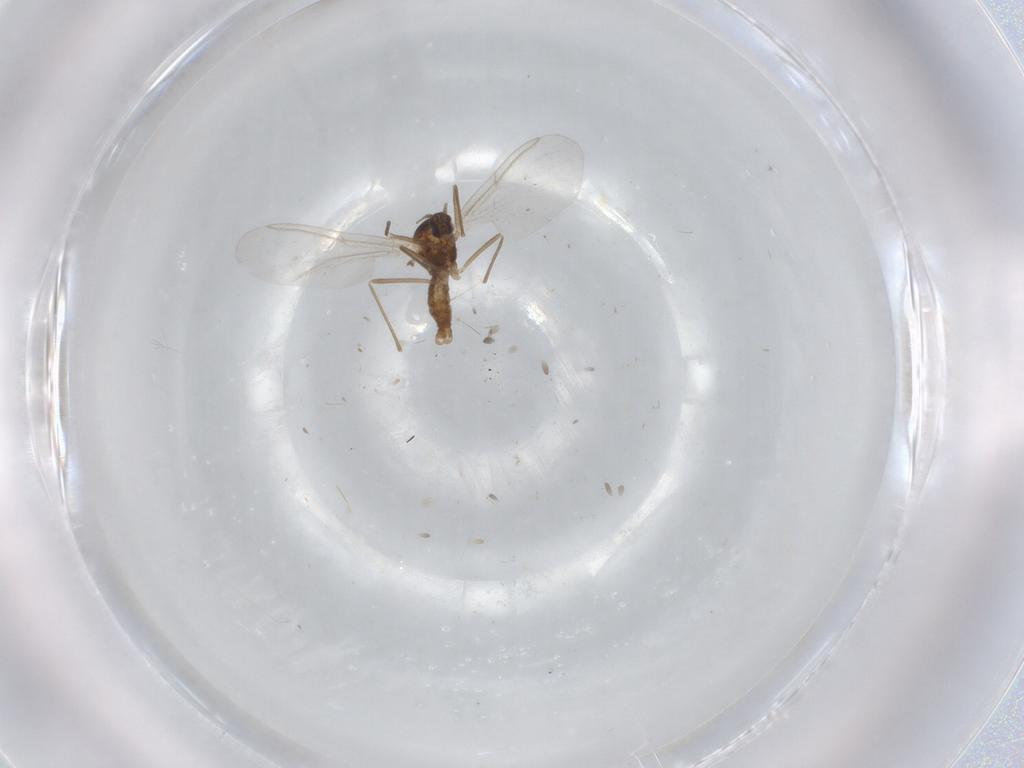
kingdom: Animalia
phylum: Arthropoda
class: Insecta
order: Diptera
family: Cecidomyiidae
